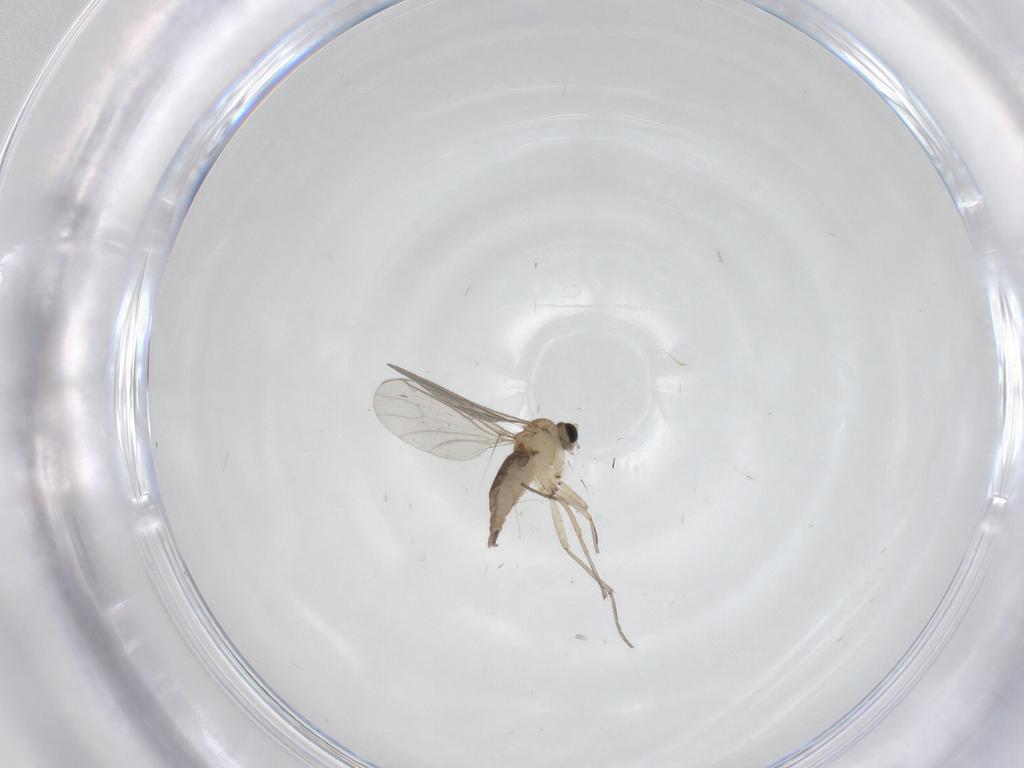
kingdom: Animalia
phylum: Arthropoda
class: Insecta
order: Diptera
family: Sciaridae
